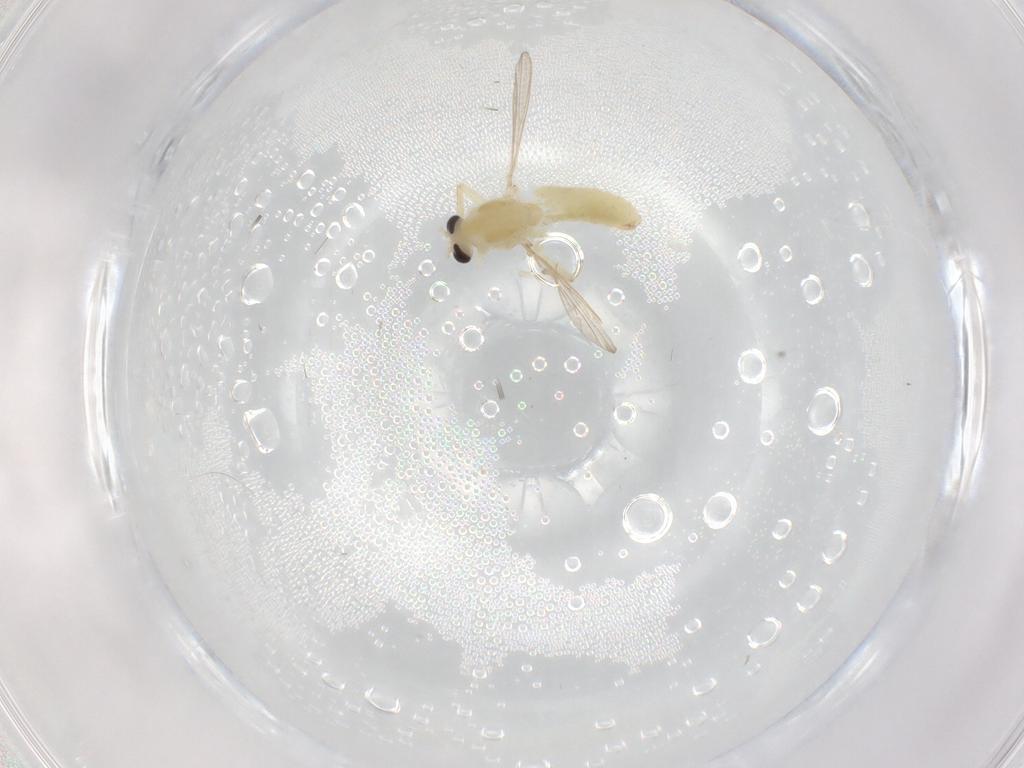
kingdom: Animalia
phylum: Arthropoda
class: Insecta
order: Diptera
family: Chironomidae
